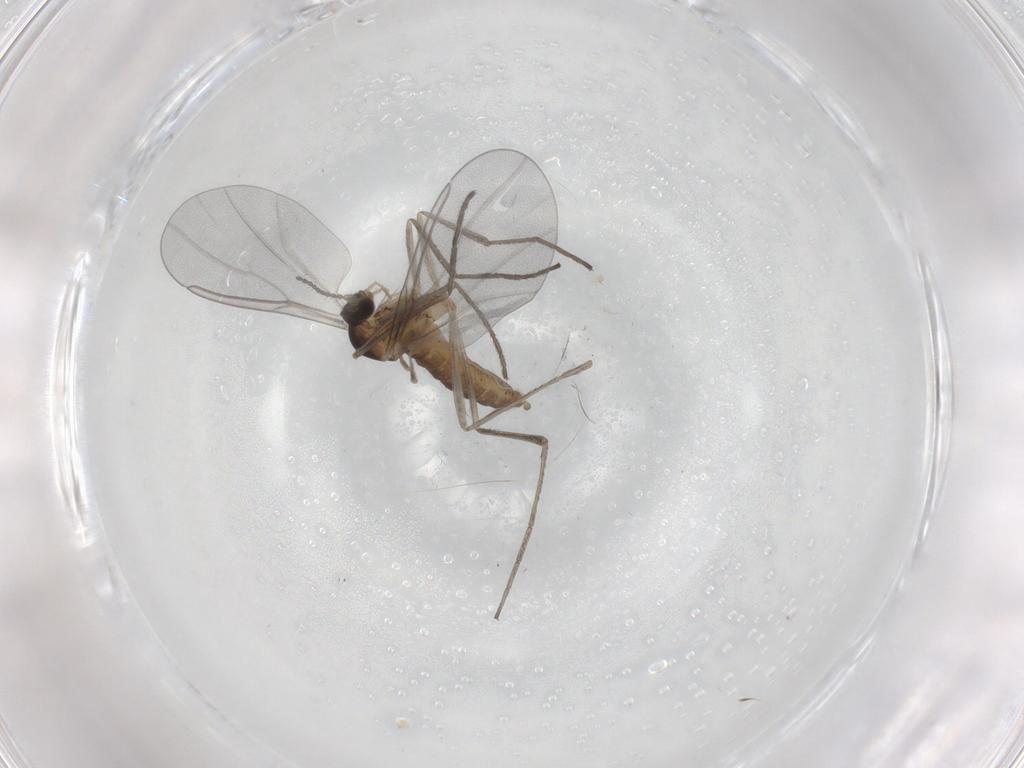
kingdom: Animalia
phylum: Arthropoda
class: Insecta
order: Diptera
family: Cecidomyiidae
